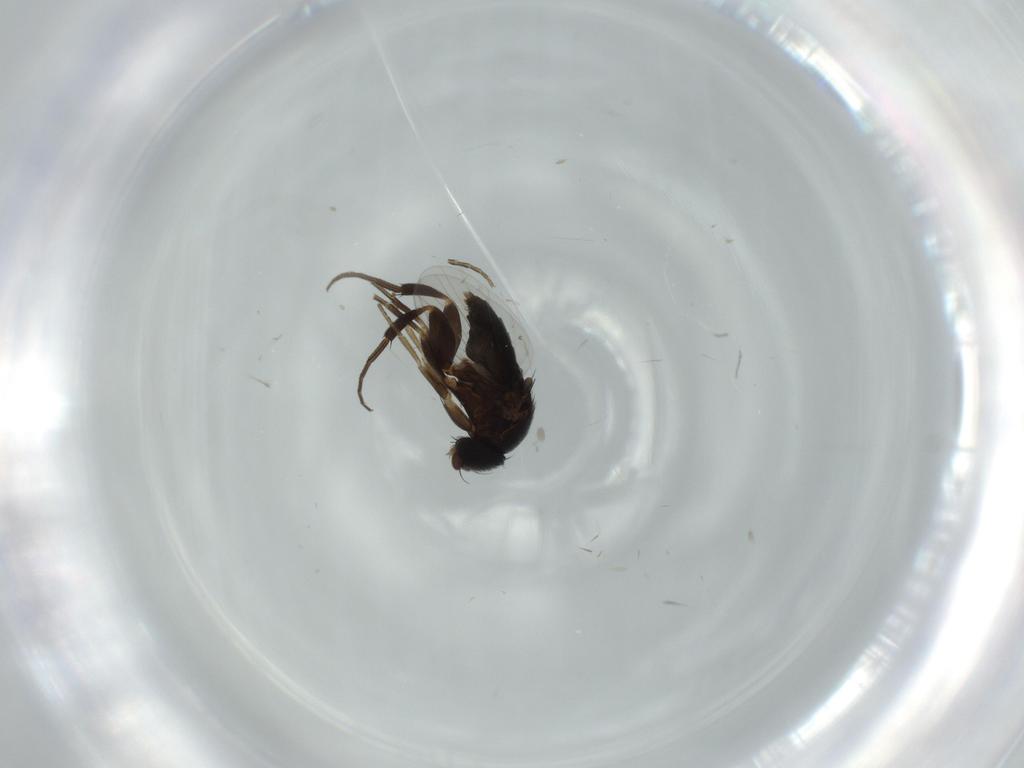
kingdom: Animalia
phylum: Arthropoda
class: Insecta
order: Diptera
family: Phoridae
